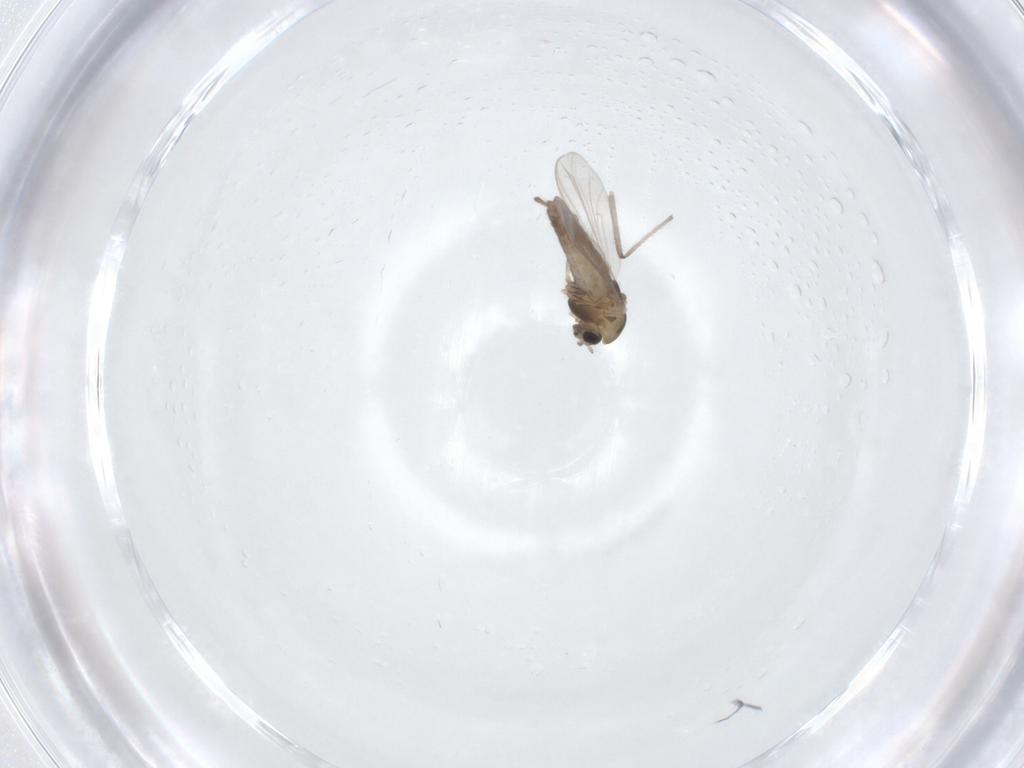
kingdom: Animalia
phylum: Arthropoda
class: Insecta
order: Diptera
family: Chironomidae
